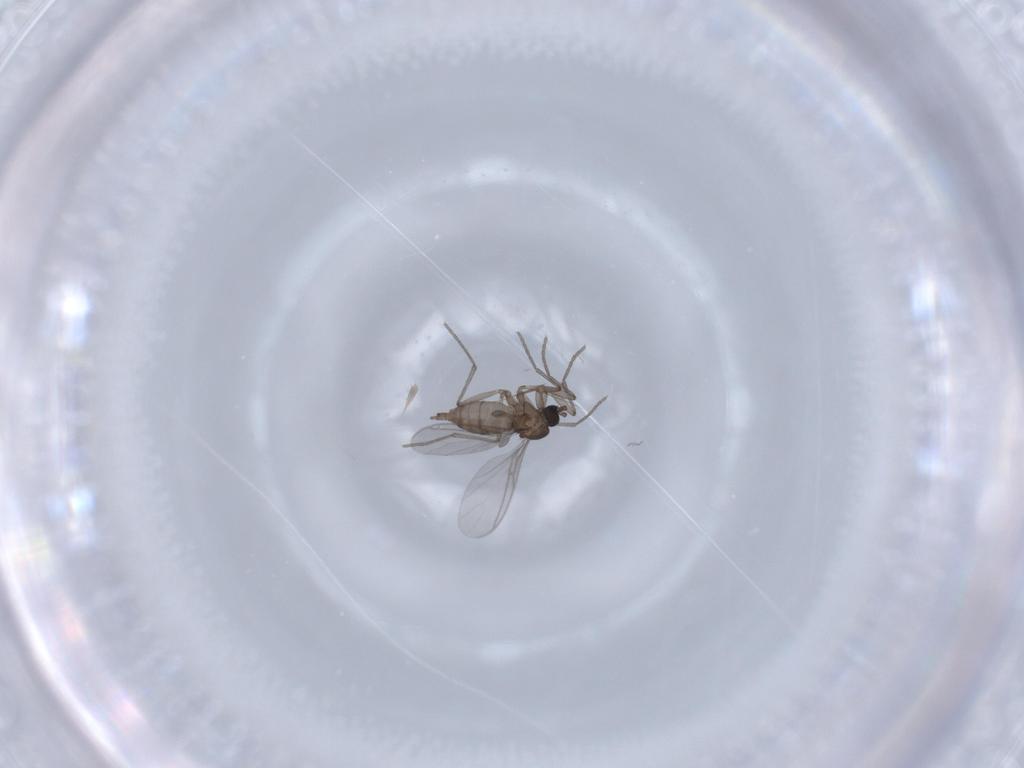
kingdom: Animalia
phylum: Arthropoda
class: Insecta
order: Diptera
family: Sciaridae
